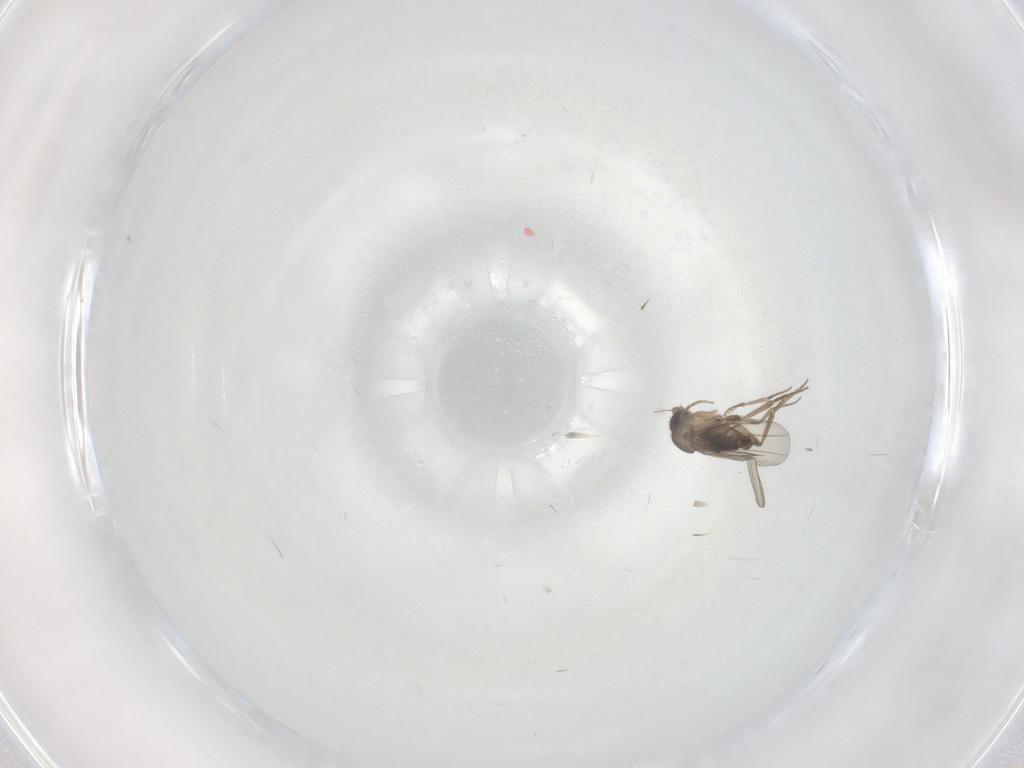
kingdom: Animalia
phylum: Arthropoda
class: Insecta
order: Diptera
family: Phoridae
